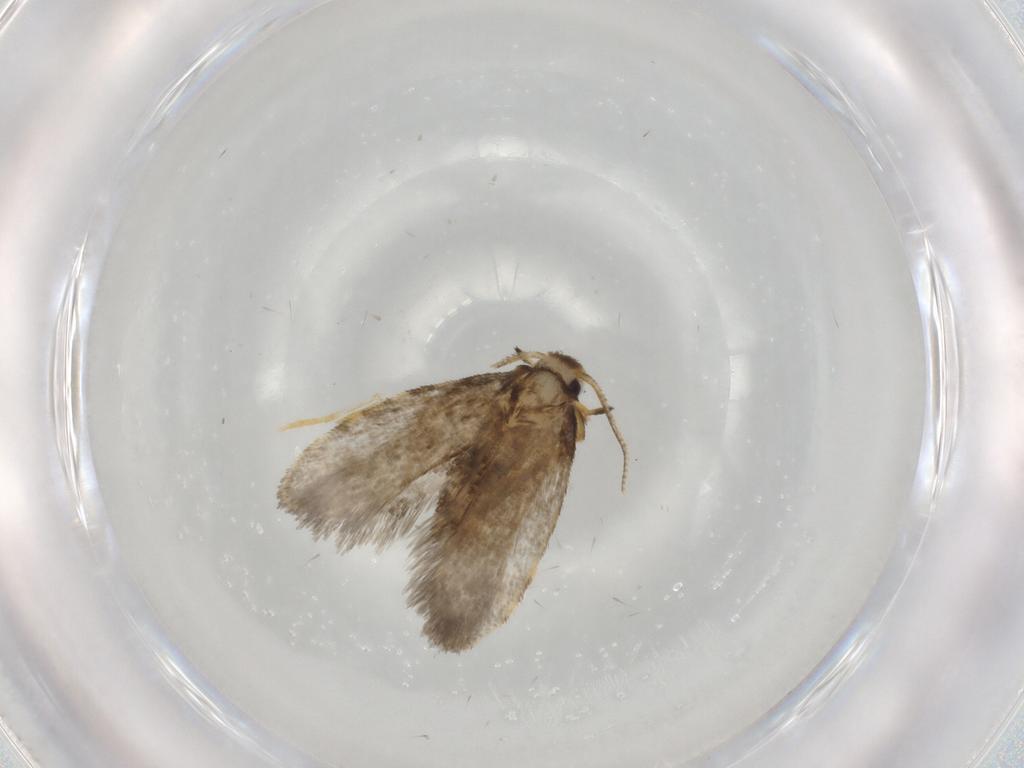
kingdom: Animalia
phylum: Arthropoda
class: Insecta
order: Lepidoptera
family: Psychidae
